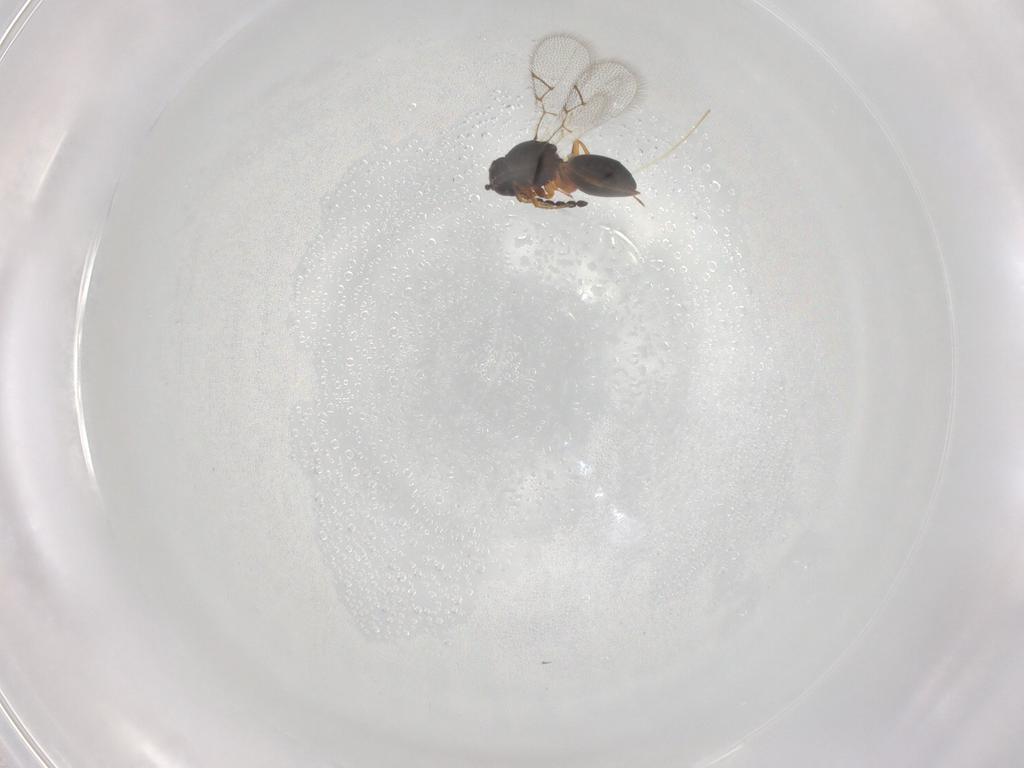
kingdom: Animalia
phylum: Arthropoda
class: Insecta
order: Hymenoptera
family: Figitidae
